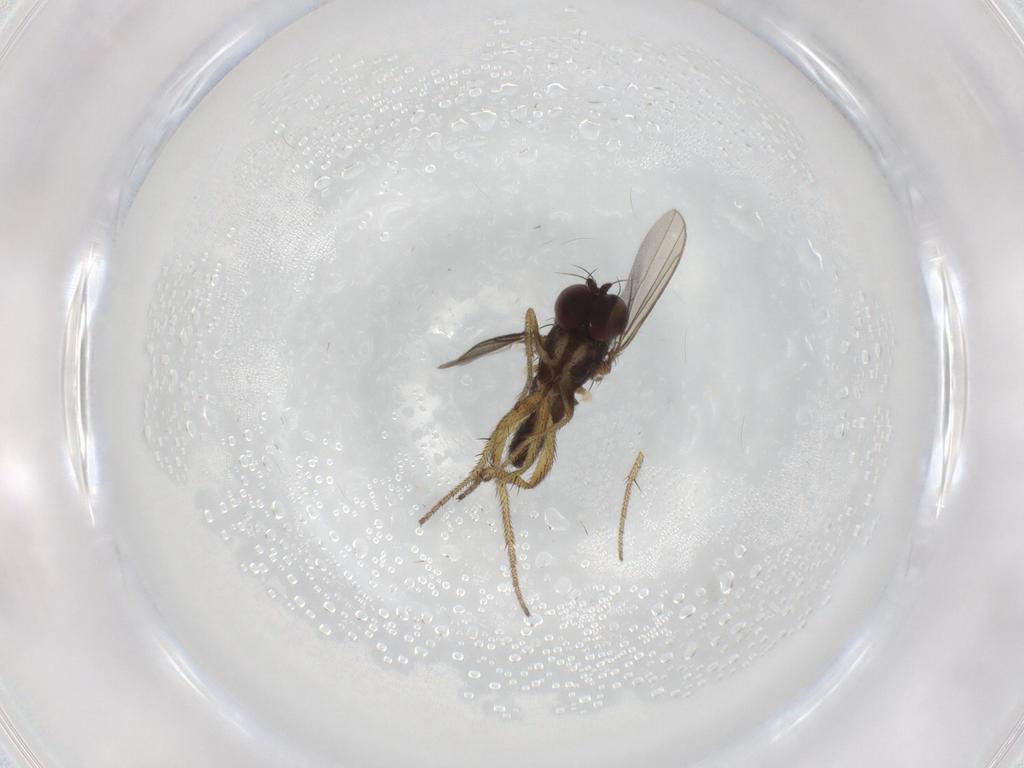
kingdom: Animalia
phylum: Arthropoda
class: Insecta
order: Diptera
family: Dolichopodidae
